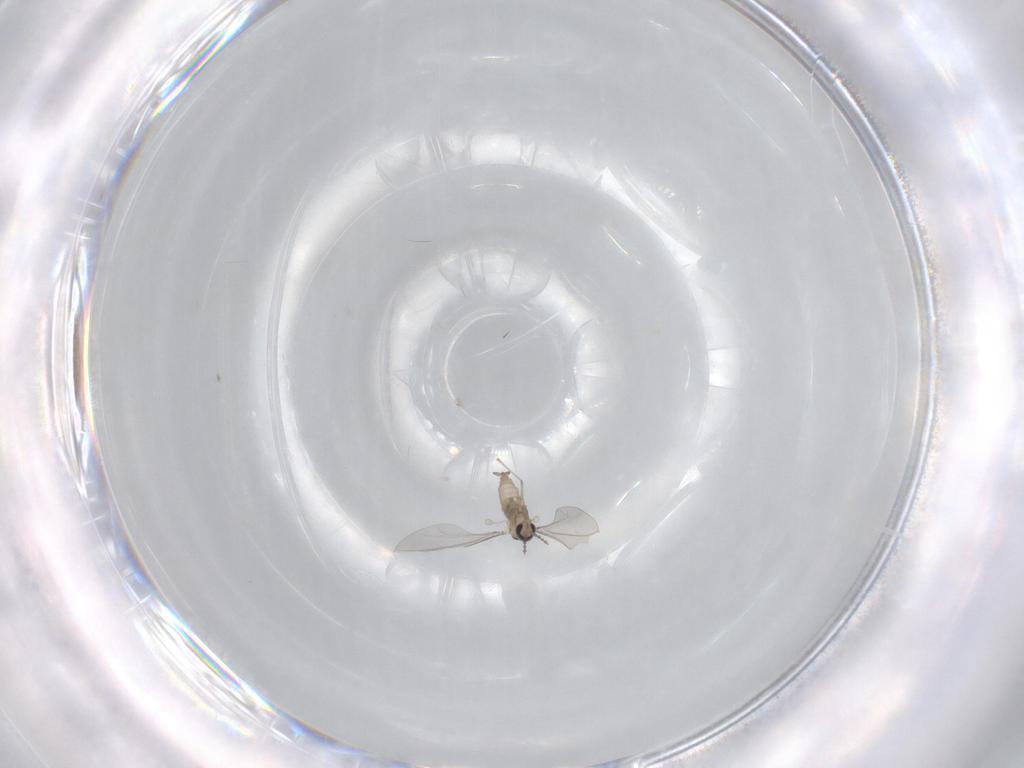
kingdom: Animalia
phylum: Arthropoda
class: Insecta
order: Diptera
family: Cecidomyiidae
